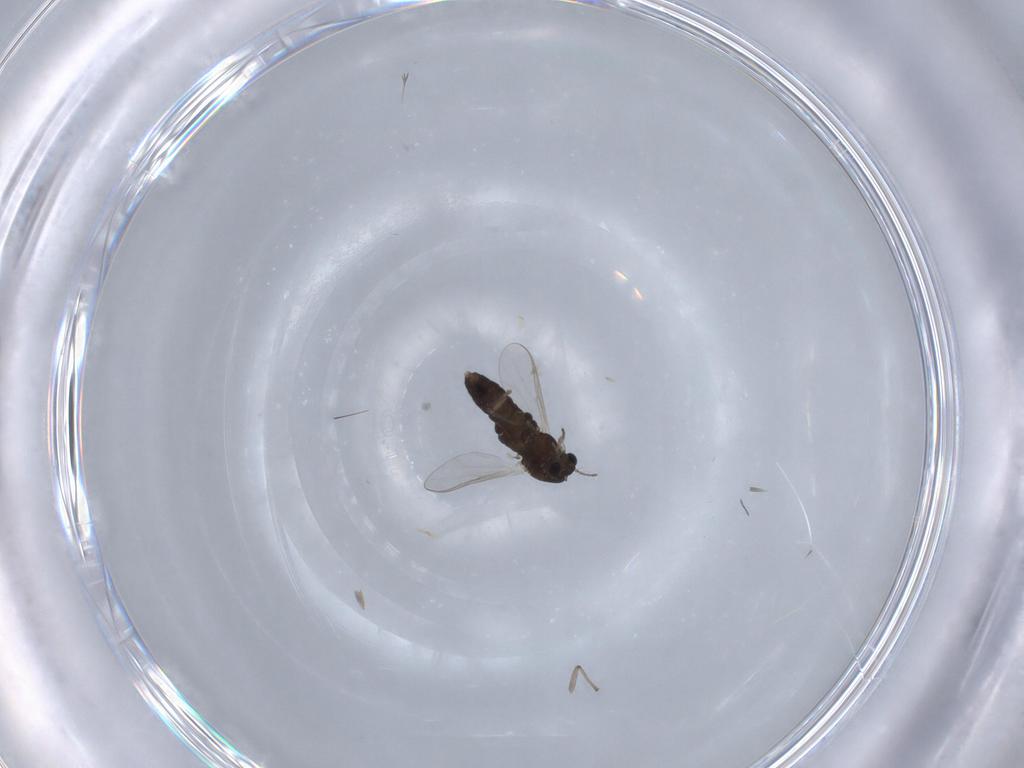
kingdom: Animalia
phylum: Arthropoda
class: Insecta
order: Diptera
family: Chironomidae
